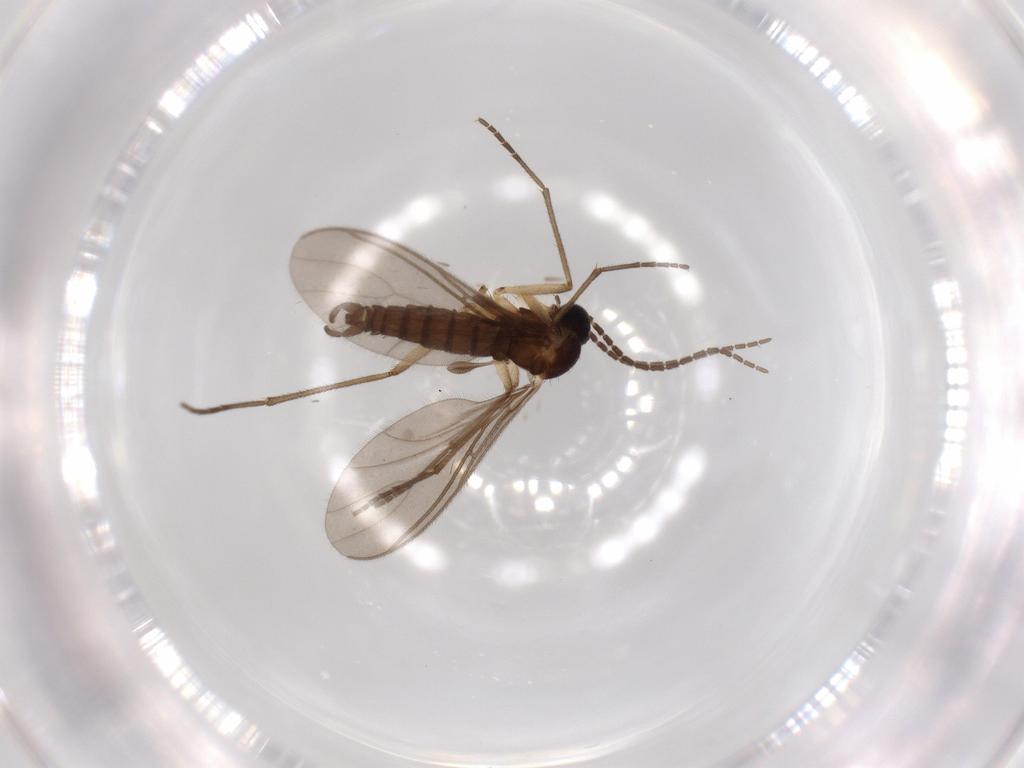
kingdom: Animalia
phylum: Arthropoda
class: Insecta
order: Diptera
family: Sciaridae
